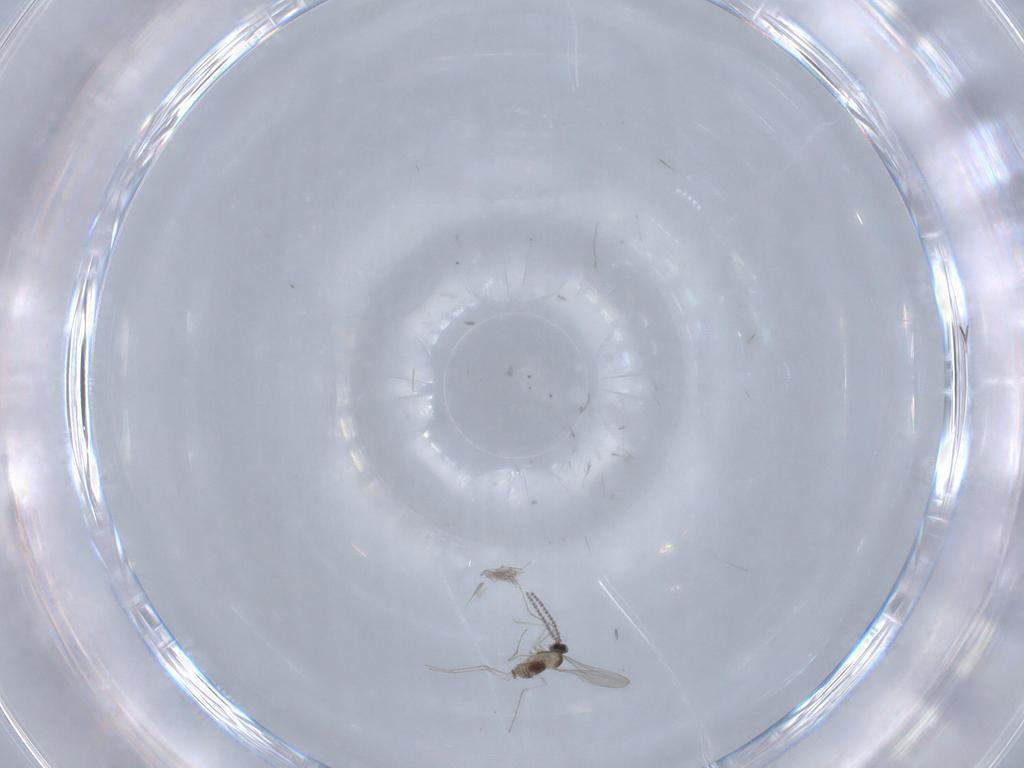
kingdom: Animalia
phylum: Arthropoda
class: Insecta
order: Diptera
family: Cecidomyiidae
